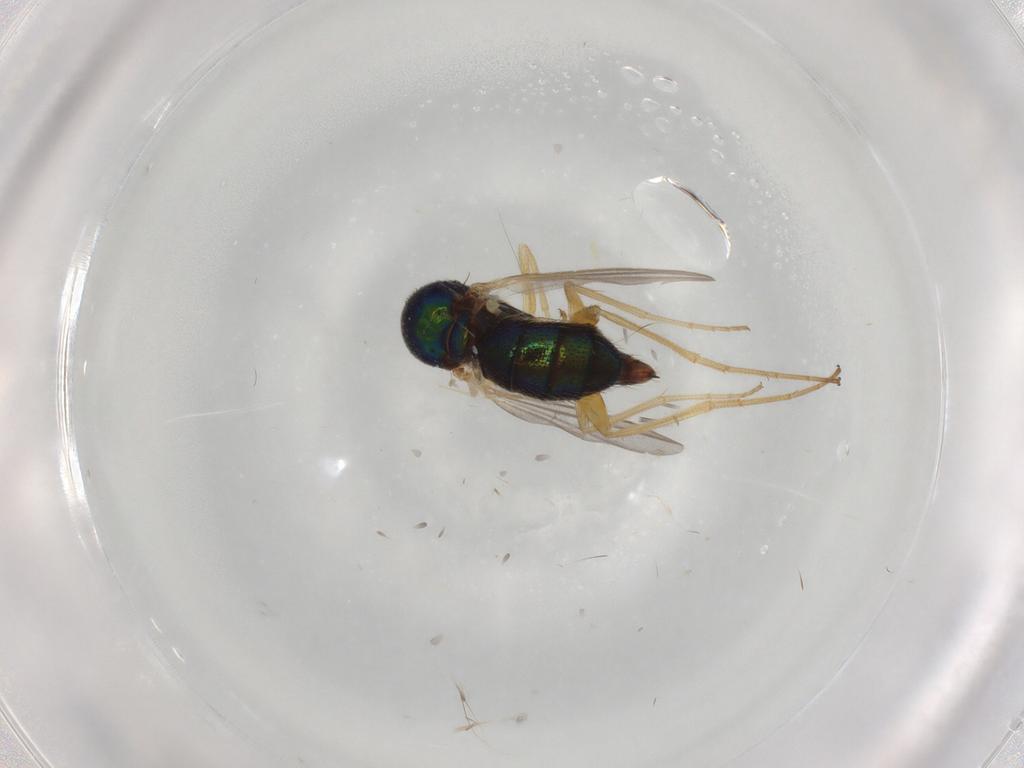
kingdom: Animalia
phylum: Arthropoda
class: Insecta
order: Diptera
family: Dolichopodidae
